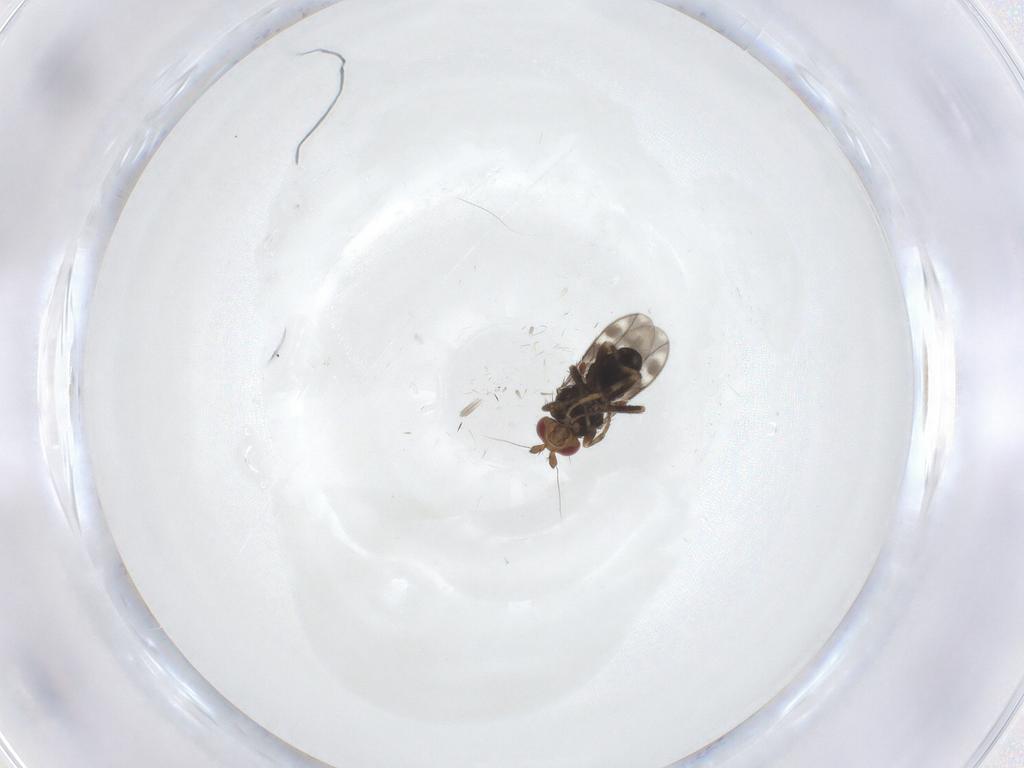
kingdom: Animalia
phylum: Arthropoda
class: Insecta
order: Diptera
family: Sphaeroceridae
